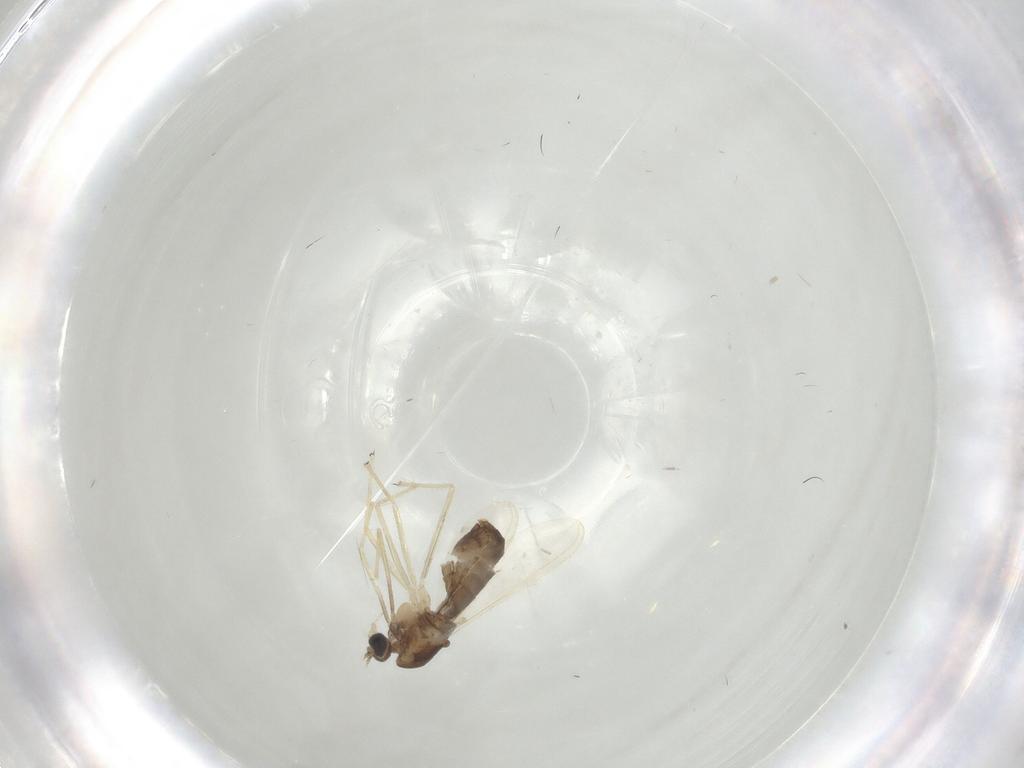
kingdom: Animalia
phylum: Arthropoda
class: Insecta
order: Diptera
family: Chironomidae
